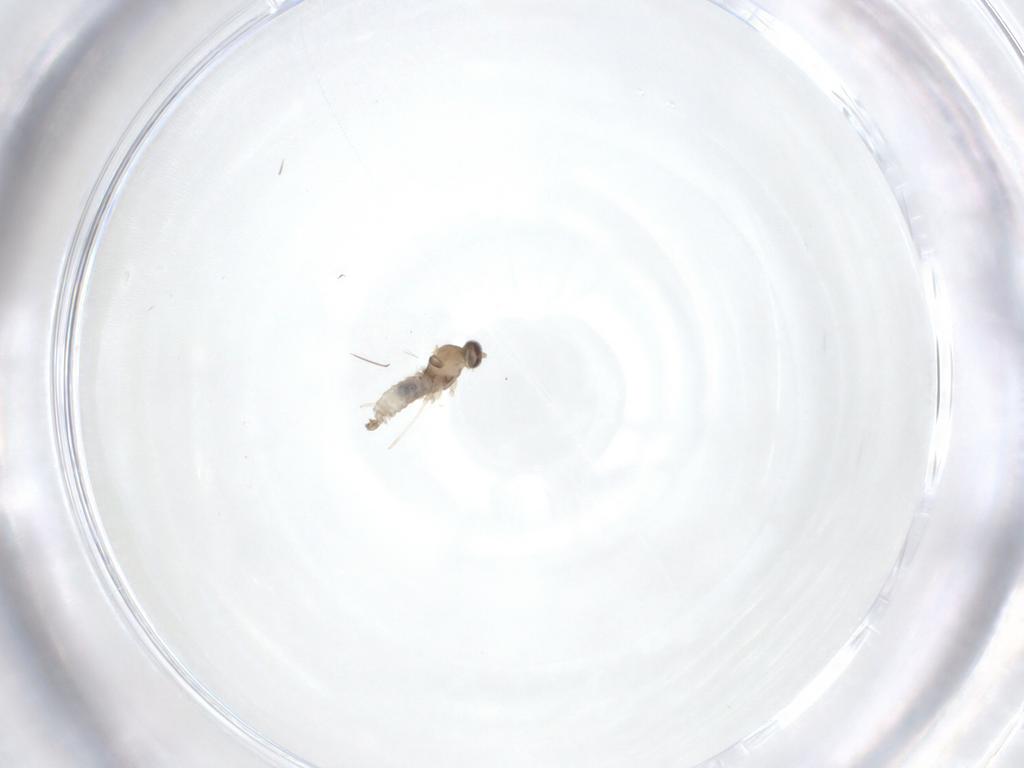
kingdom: Animalia
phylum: Arthropoda
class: Insecta
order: Diptera
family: Cecidomyiidae
